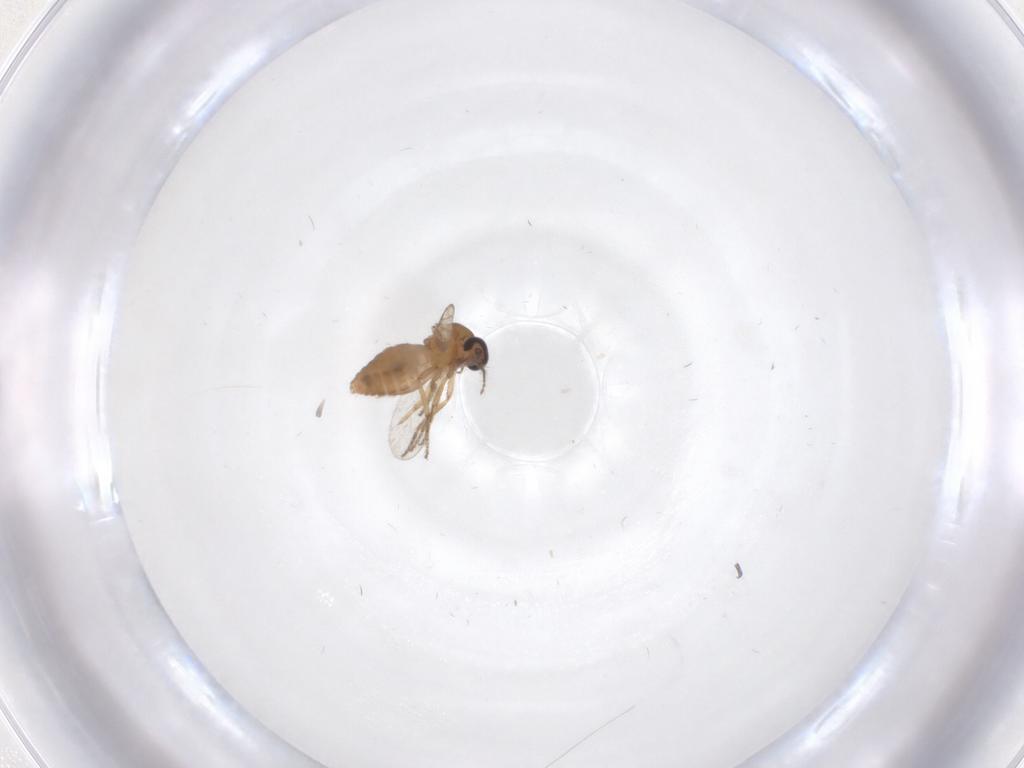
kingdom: Animalia
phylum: Arthropoda
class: Insecta
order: Diptera
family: Ceratopogonidae
